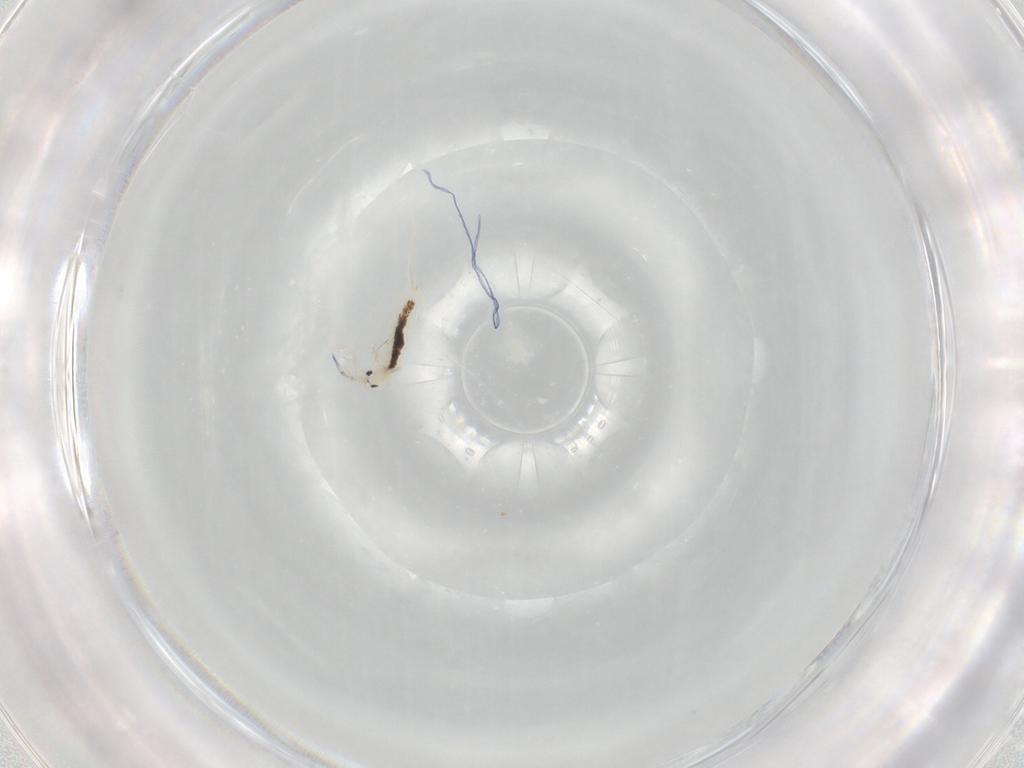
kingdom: Animalia
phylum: Arthropoda
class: Collembola
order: Entomobryomorpha
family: Entomobryidae
